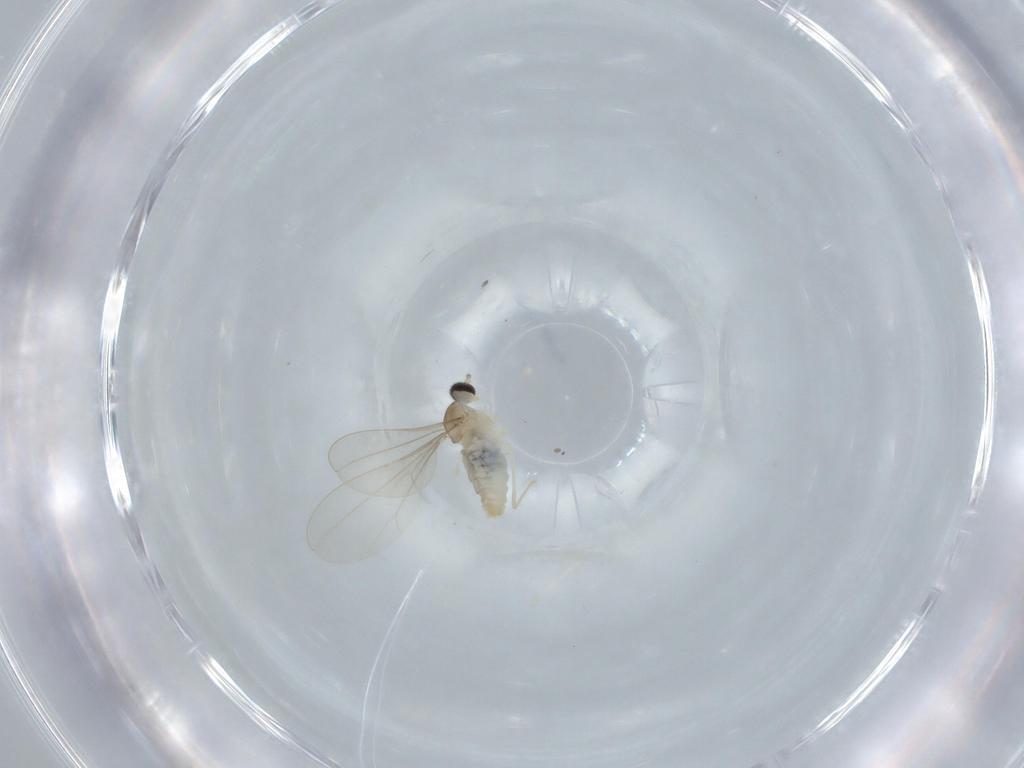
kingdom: Animalia
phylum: Arthropoda
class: Insecta
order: Diptera
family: Cecidomyiidae
